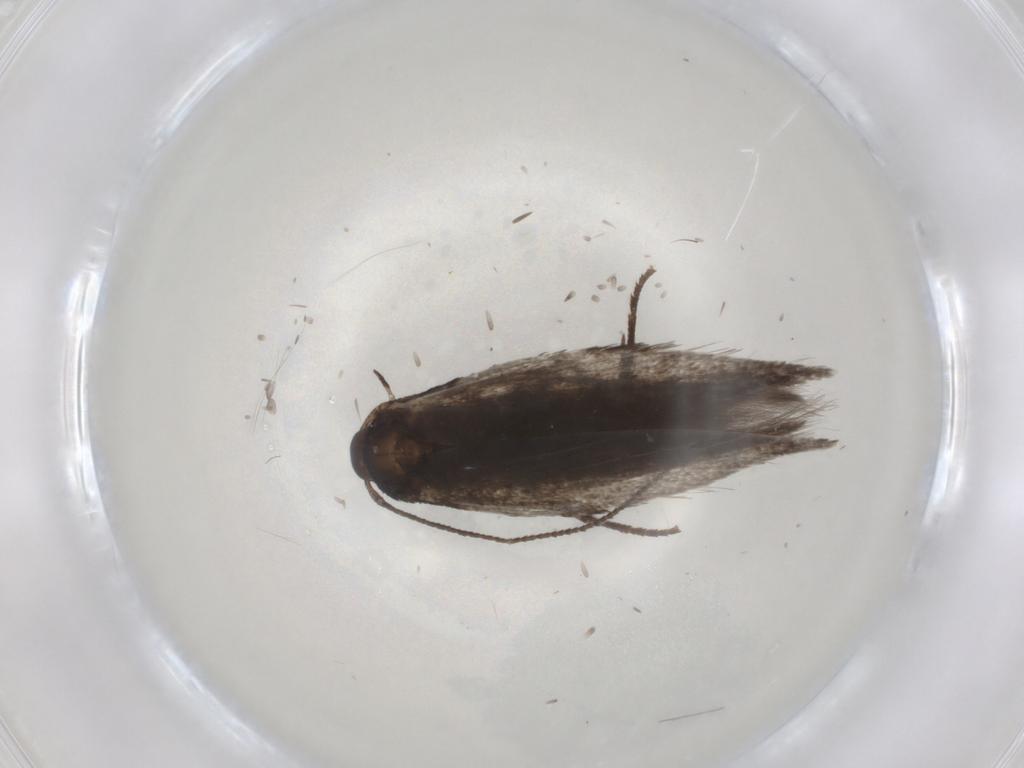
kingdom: Animalia
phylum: Arthropoda
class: Insecta
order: Lepidoptera
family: Gelechiidae
